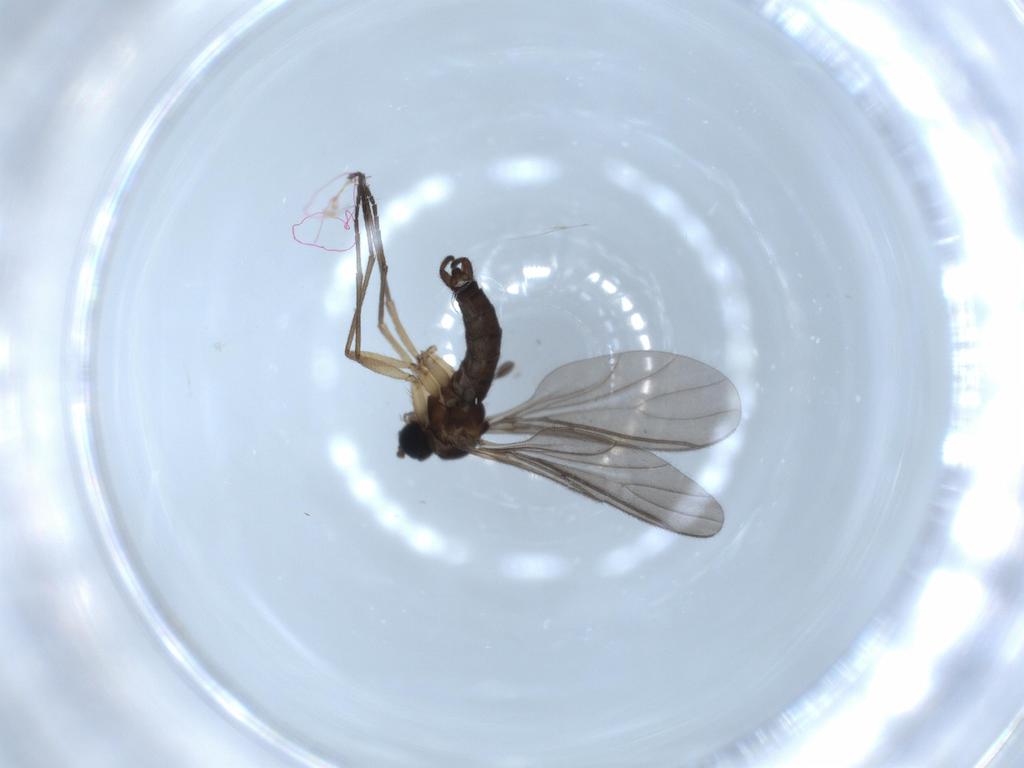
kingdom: Animalia
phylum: Arthropoda
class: Insecta
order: Diptera
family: Sciaridae
